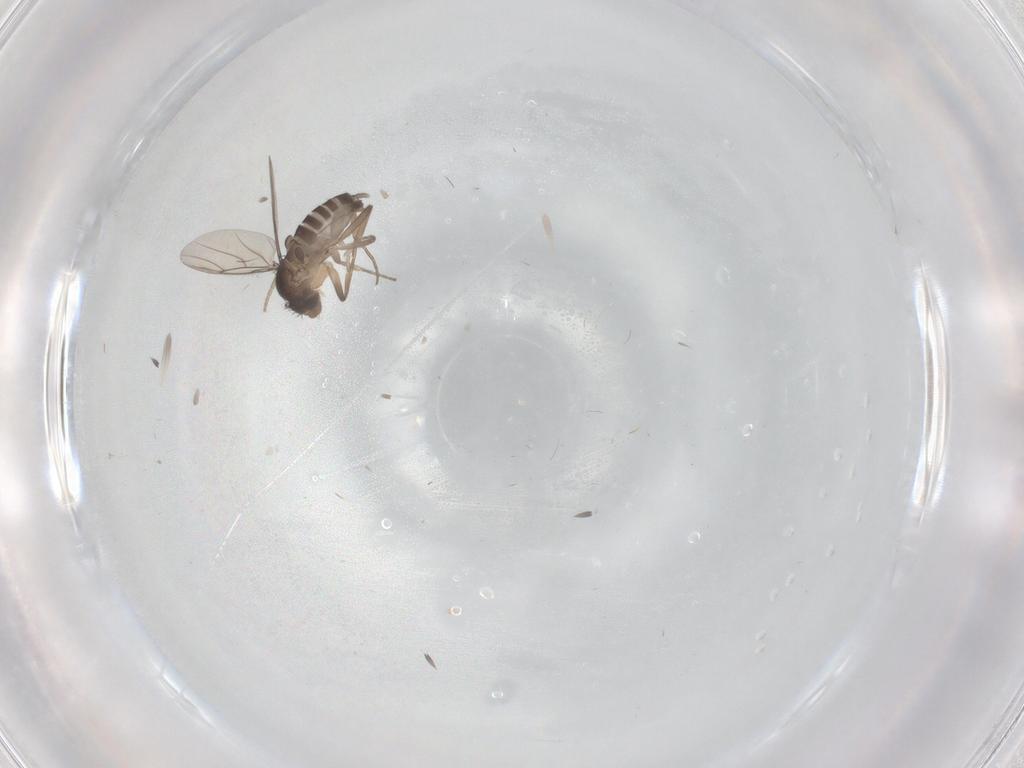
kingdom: Animalia
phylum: Arthropoda
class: Insecta
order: Diptera
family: Phoridae
